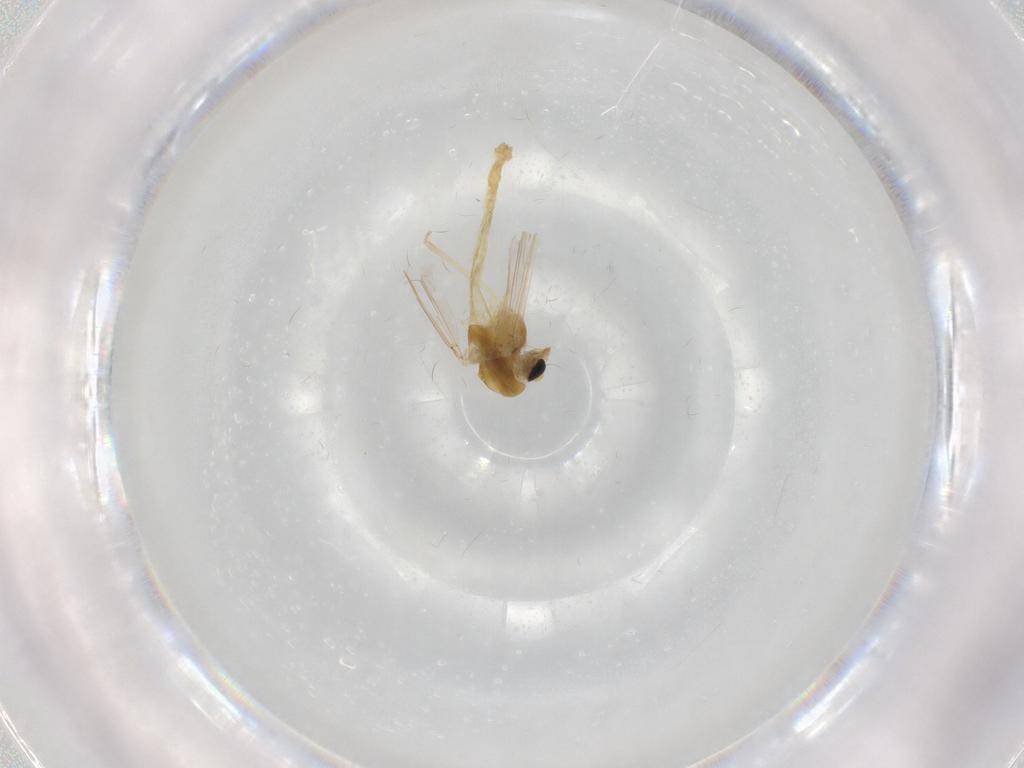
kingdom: Animalia
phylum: Arthropoda
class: Insecta
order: Diptera
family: Chironomidae
